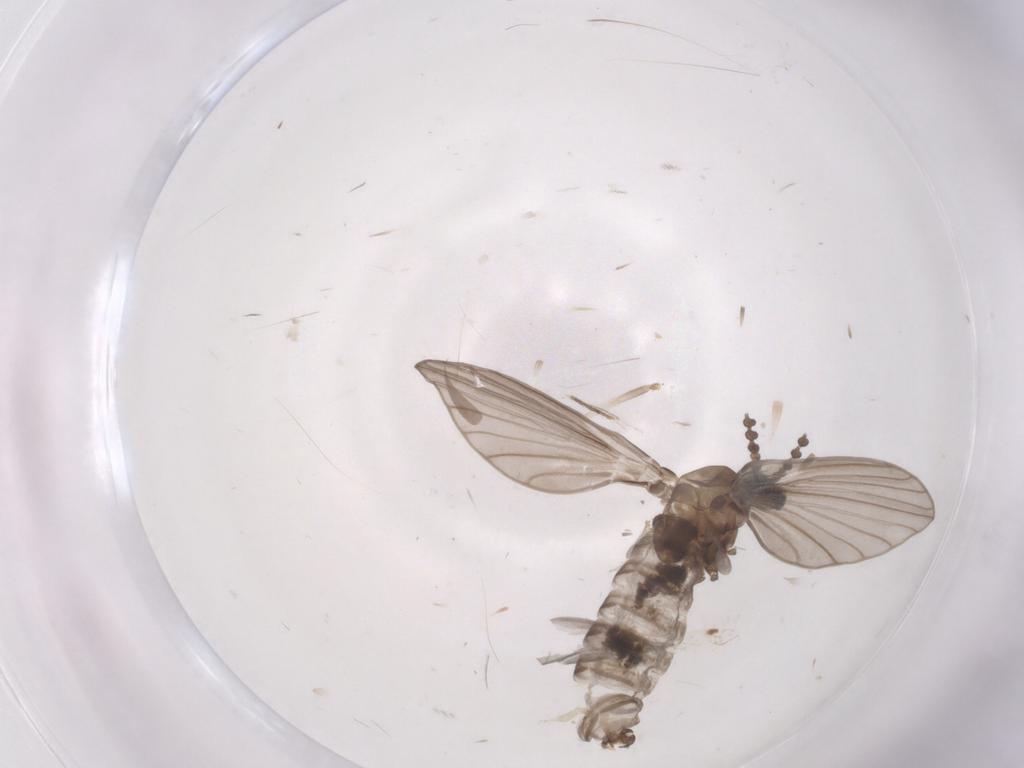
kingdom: Animalia
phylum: Arthropoda
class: Insecta
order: Diptera
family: Psychodidae
